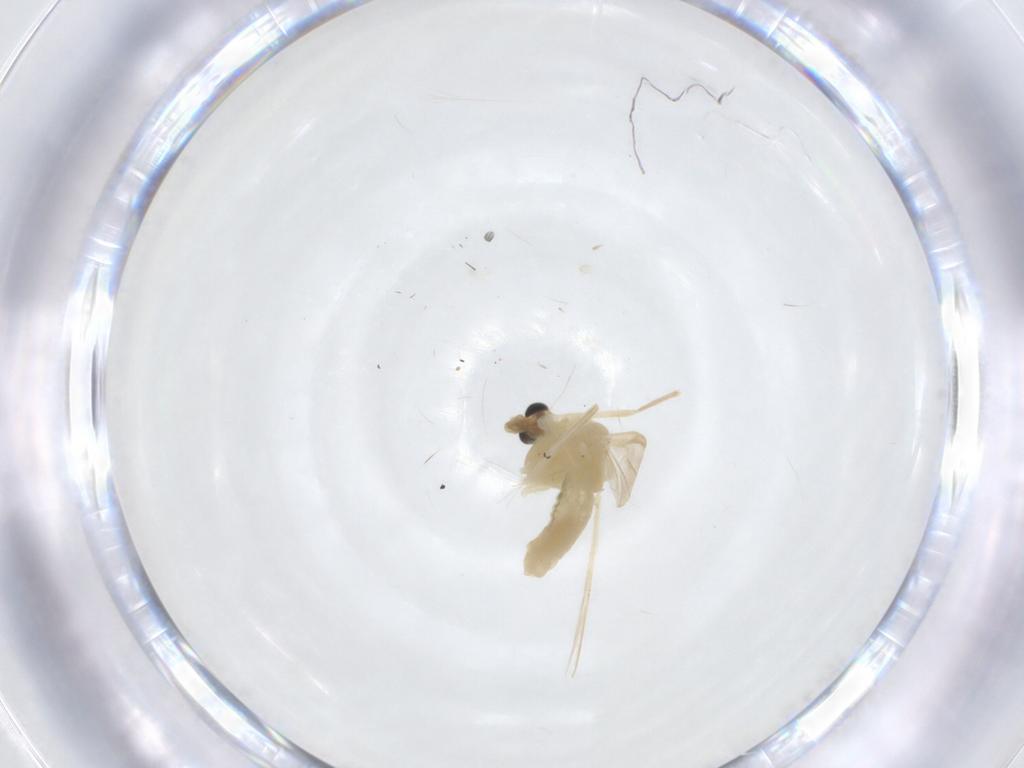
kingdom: Animalia
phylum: Arthropoda
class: Insecta
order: Diptera
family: Chironomidae
